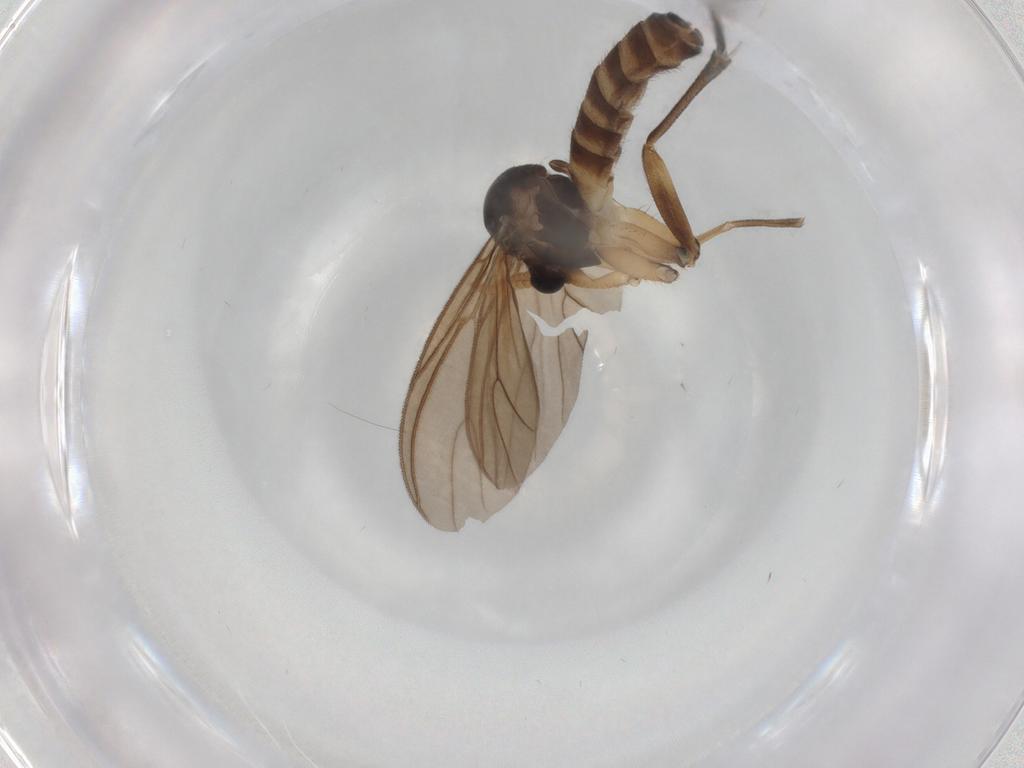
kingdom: Animalia
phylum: Arthropoda
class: Insecta
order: Diptera
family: Mycetophilidae
